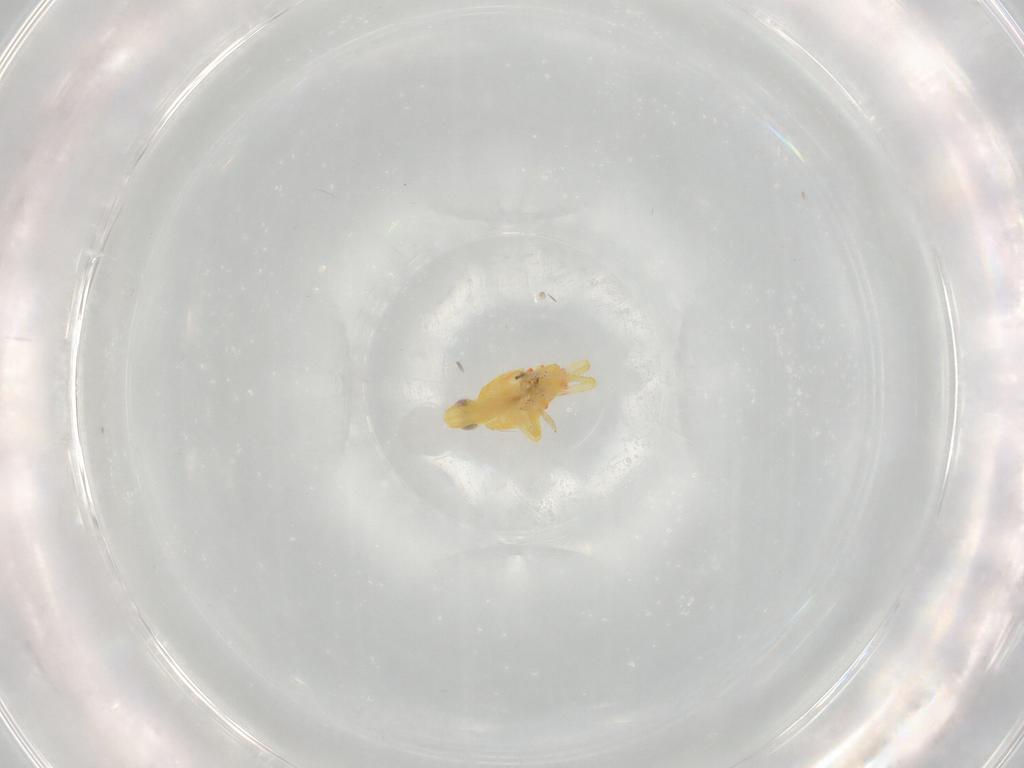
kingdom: Animalia
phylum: Arthropoda
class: Insecta
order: Hemiptera
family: Tropiduchidae
